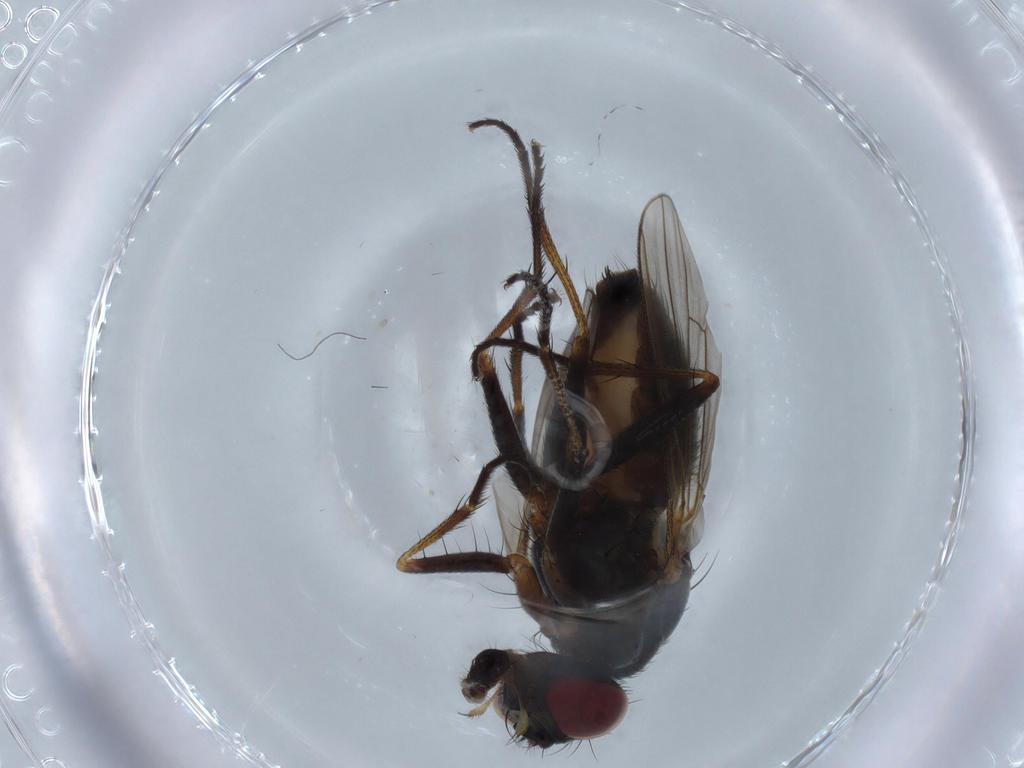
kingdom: Animalia
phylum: Arthropoda
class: Insecta
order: Diptera
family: Muscidae
